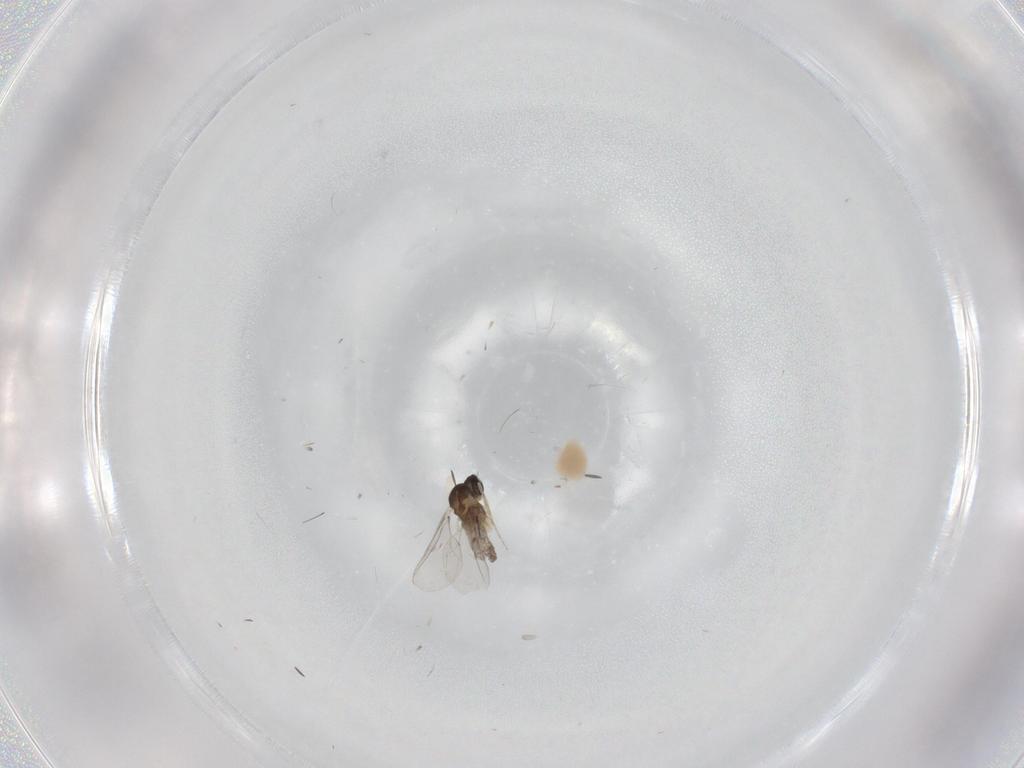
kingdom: Animalia
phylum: Arthropoda
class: Insecta
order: Diptera
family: Cecidomyiidae
